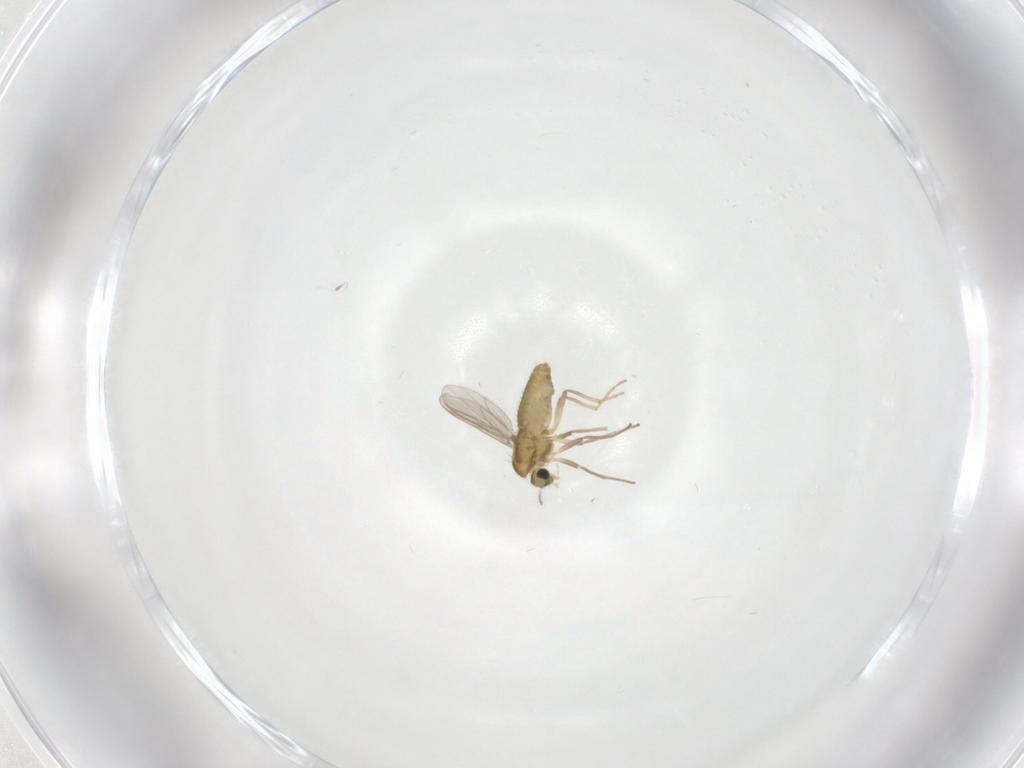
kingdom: Animalia
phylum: Arthropoda
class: Insecta
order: Diptera
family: Chironomidae
